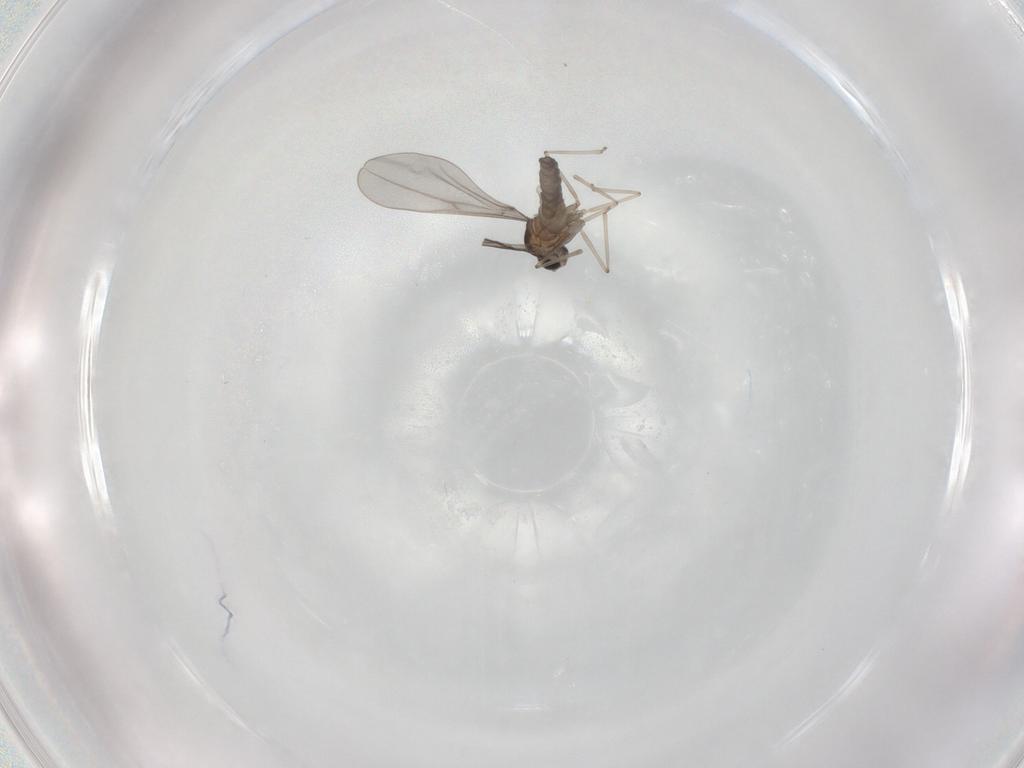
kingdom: Animalia
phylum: Arthropoda
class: Insecta
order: Diptera
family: Cecidomyiidae
